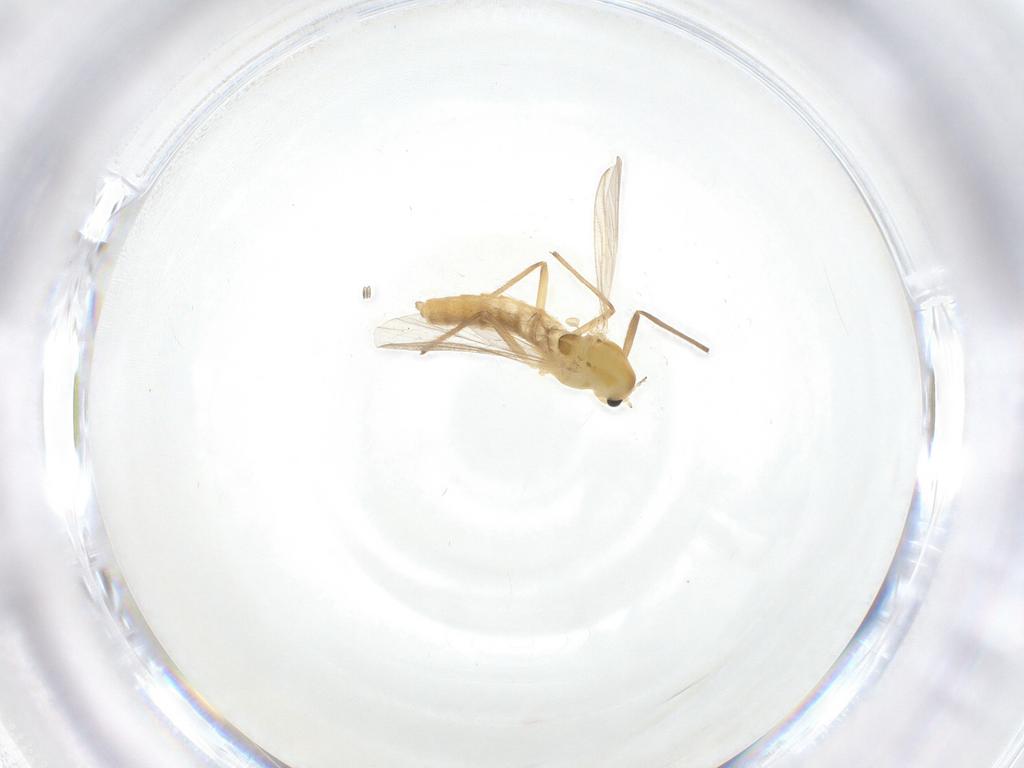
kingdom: Animalia
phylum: Arthropoda
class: Insecta
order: Diptera
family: Chironomidae
